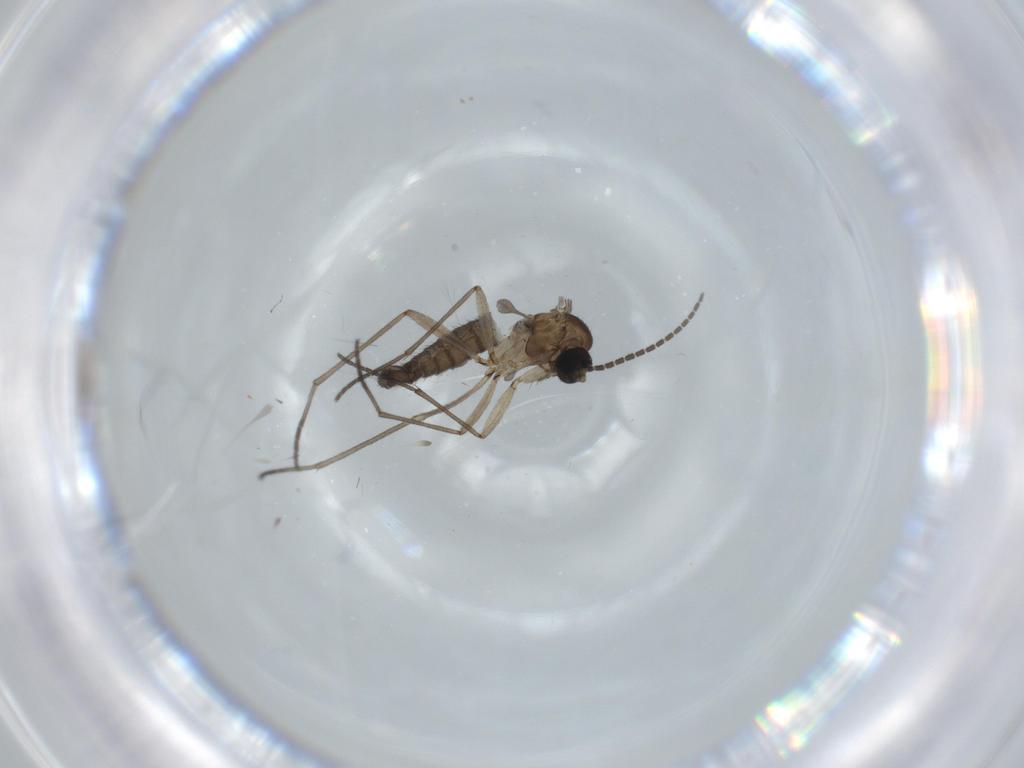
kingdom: Animalia
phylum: Arthropoda
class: Insecta
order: Diptera
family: Sciaridae
